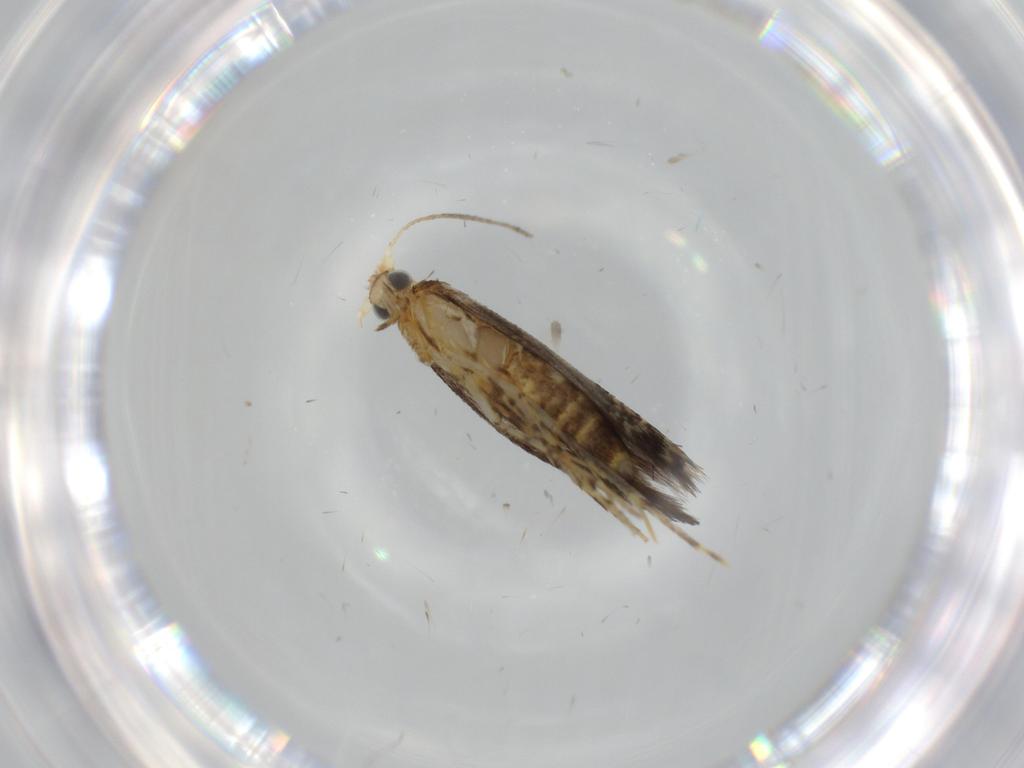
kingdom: Animalia
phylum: Arthropoda
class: Insecta
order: Lepidoptera
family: Argyresthiidae
